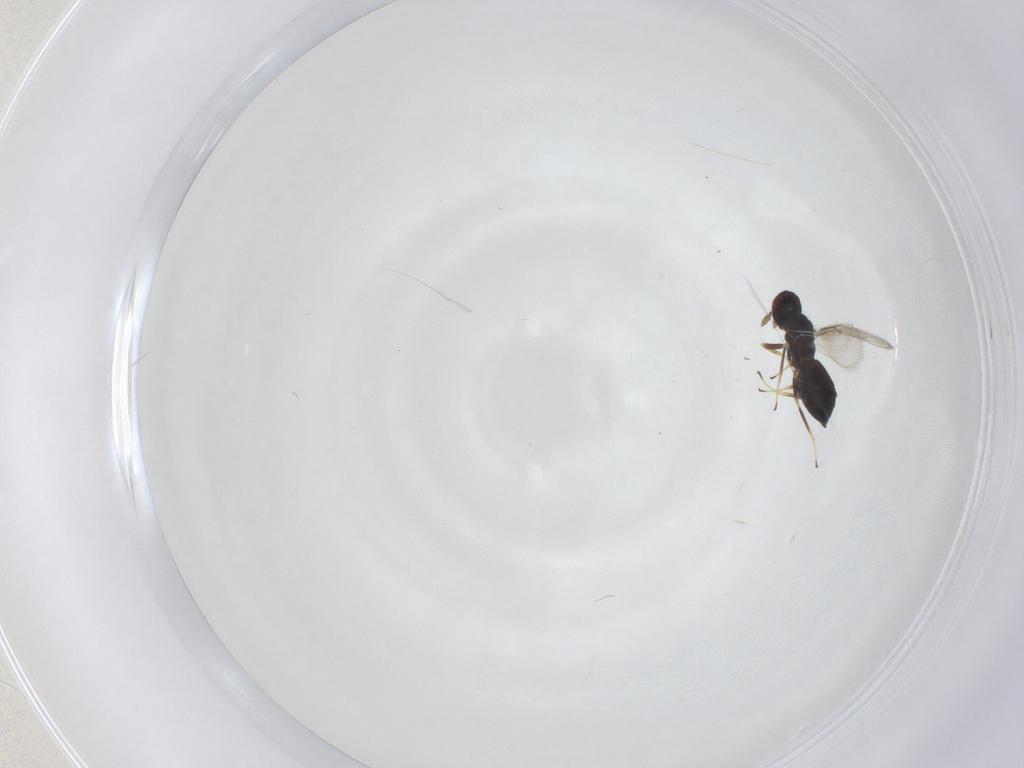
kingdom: Animalia
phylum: Arthropoda
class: Insecta
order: Hymenoptera
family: Eulophidae
